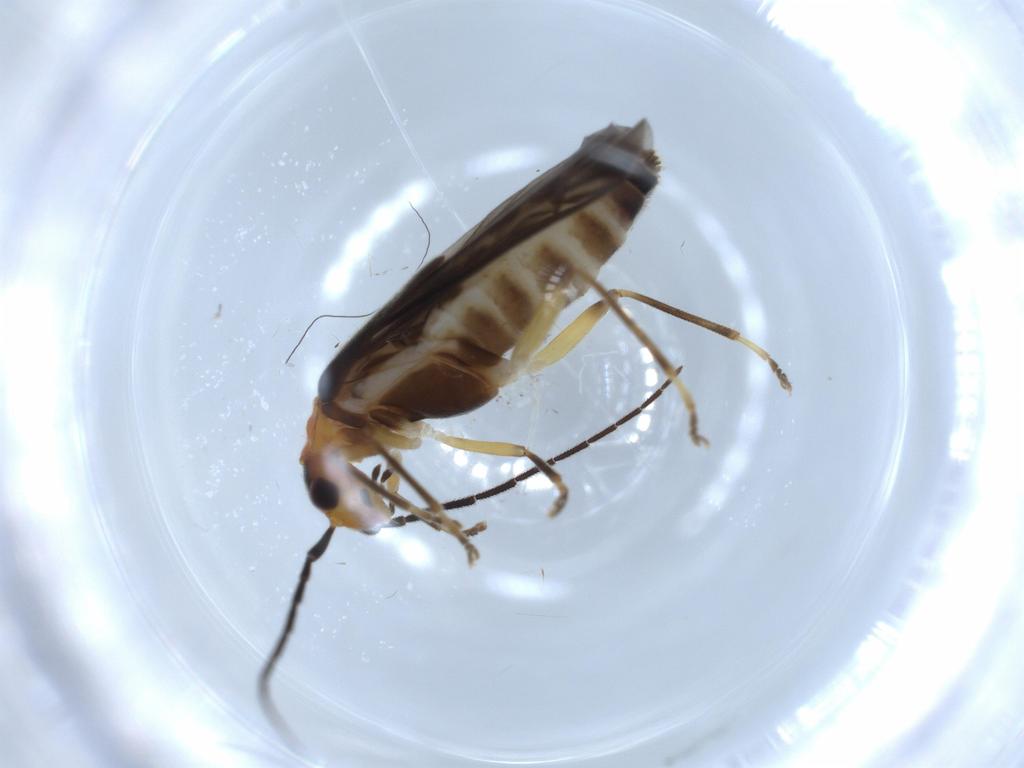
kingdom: Animalia
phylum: Arthropoda
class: Insecta
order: Coleoptera
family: Cantharidae
